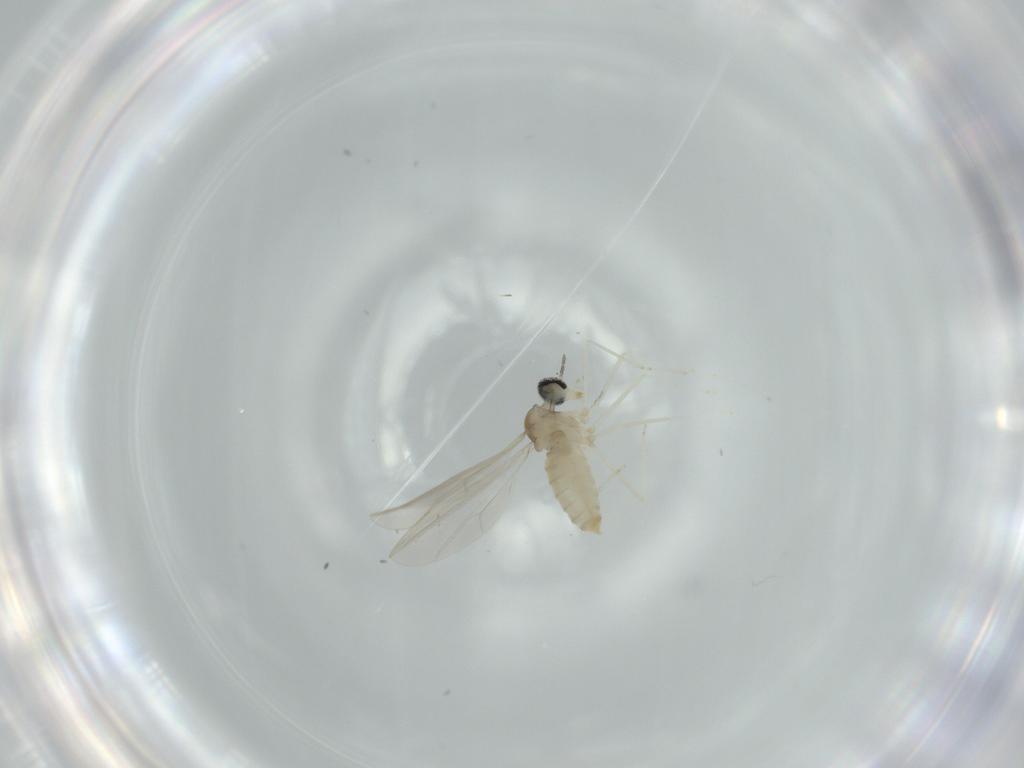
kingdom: Animalia
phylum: Arthropoda
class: Insecta
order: Diptera
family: Cecidomyiidae
